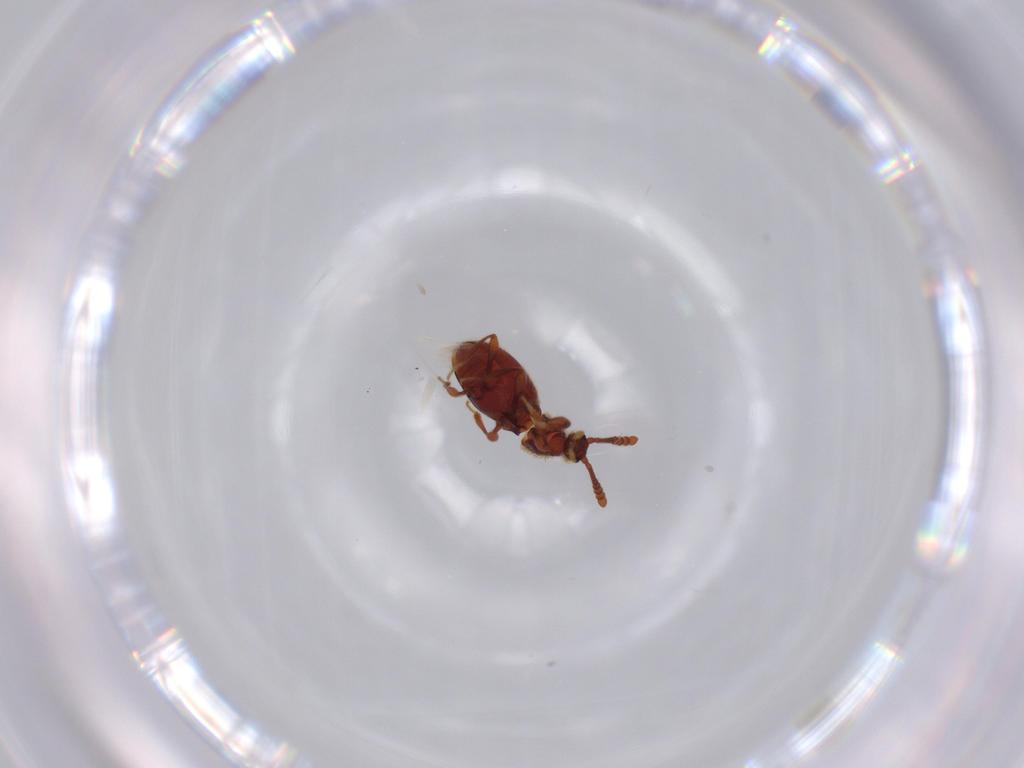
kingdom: Animalia
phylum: Arthropoda
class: Insecta
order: Coleoptera
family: Staphylinidae
